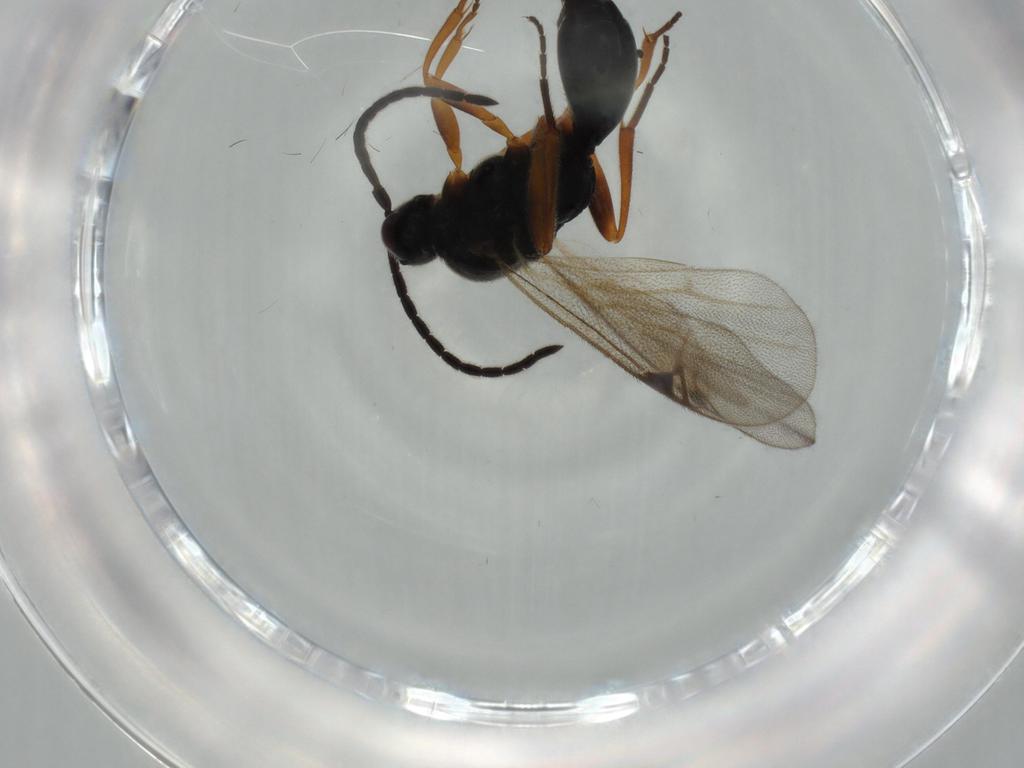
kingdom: Animalia
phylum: Arthropoda
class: Insecta
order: Hymenoptera
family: Proctotrupidae
